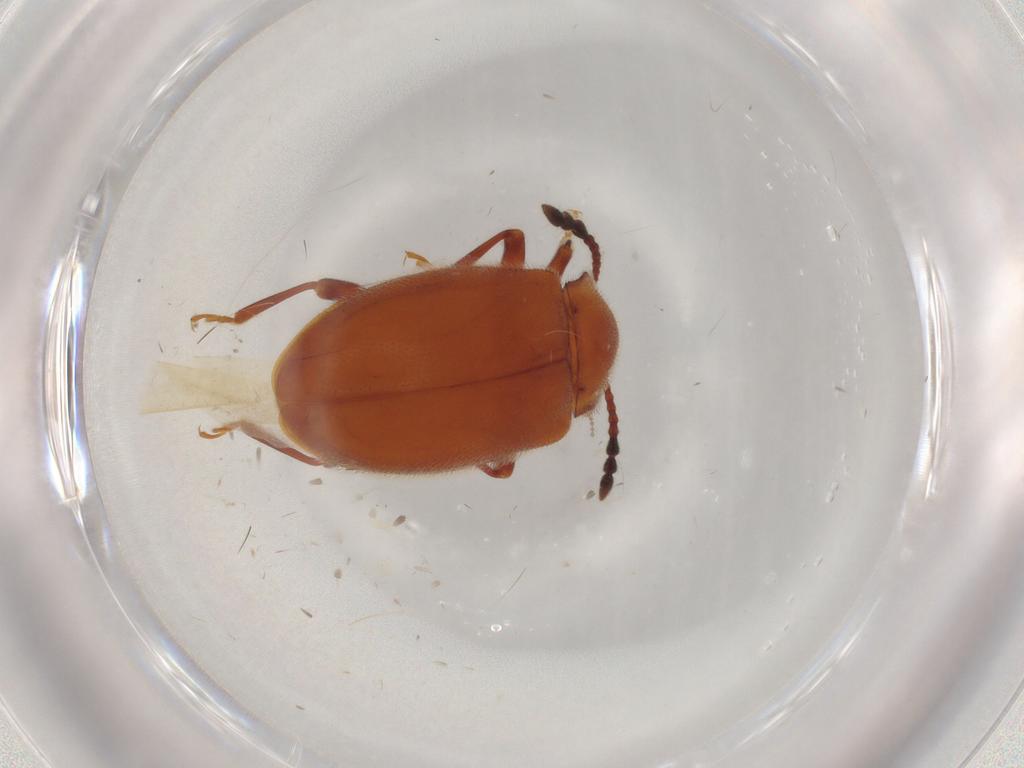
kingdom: Animalia
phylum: Arthropoda
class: Insecta
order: Coleoptera
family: Endomychidae
